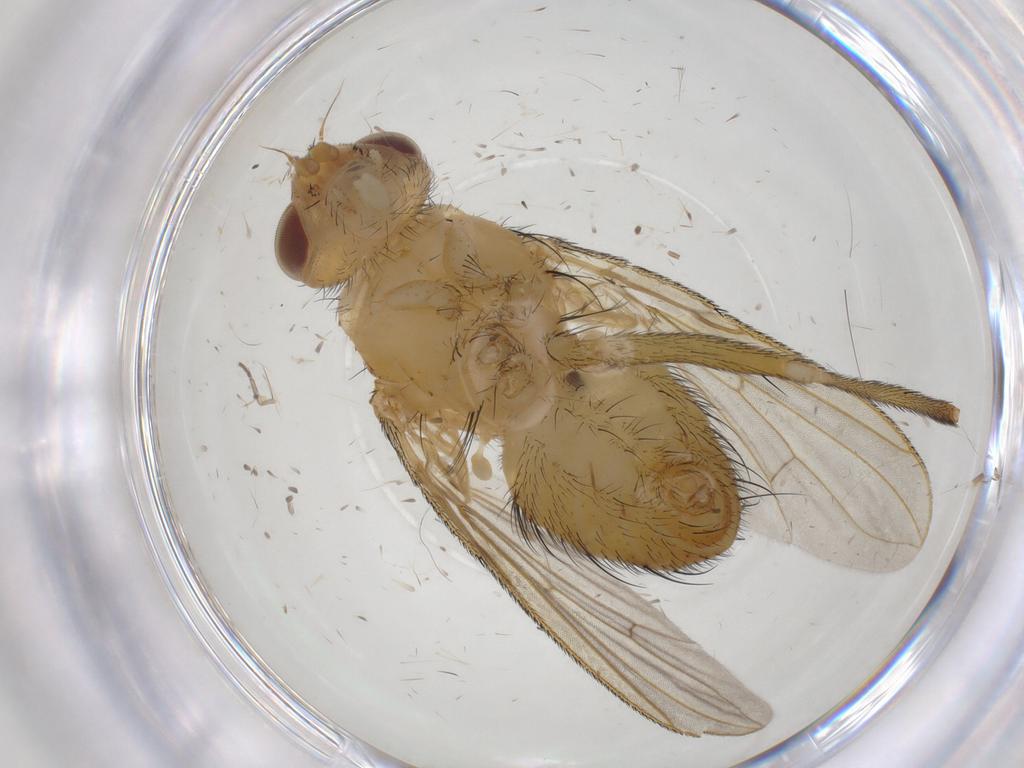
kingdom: Animalia
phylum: Arthropoda
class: Insecta
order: Diptera
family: Tachinidae
